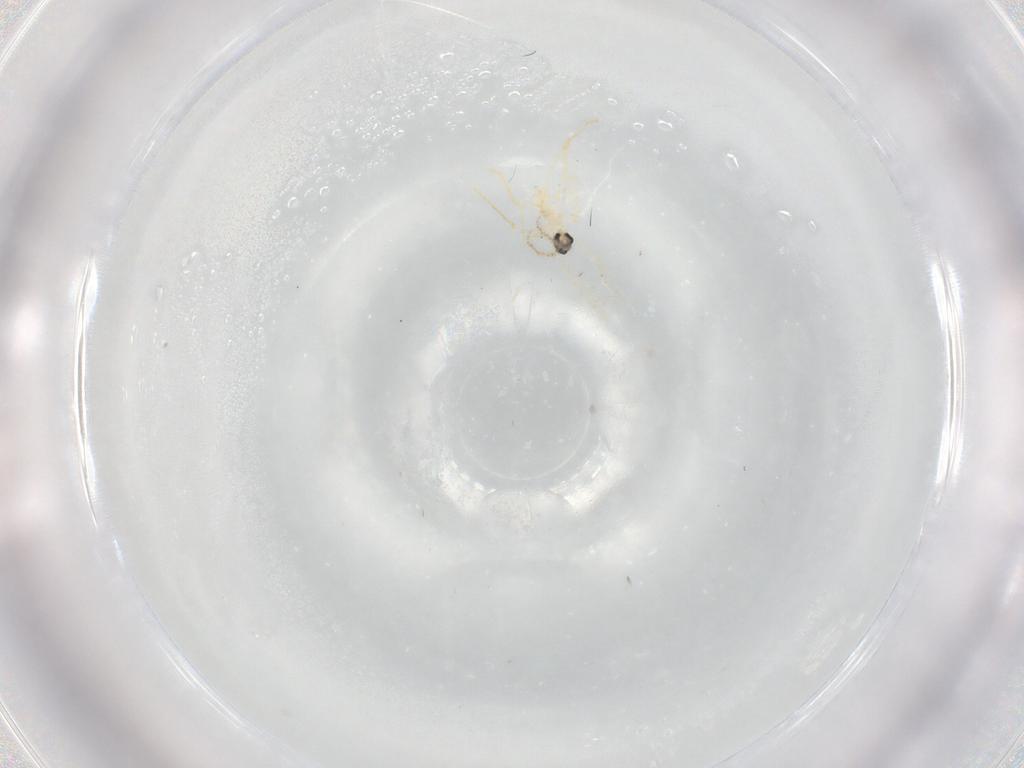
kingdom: Animalia
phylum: Arthropoda
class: Insecta
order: Diptera
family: Cecidomyiidae
